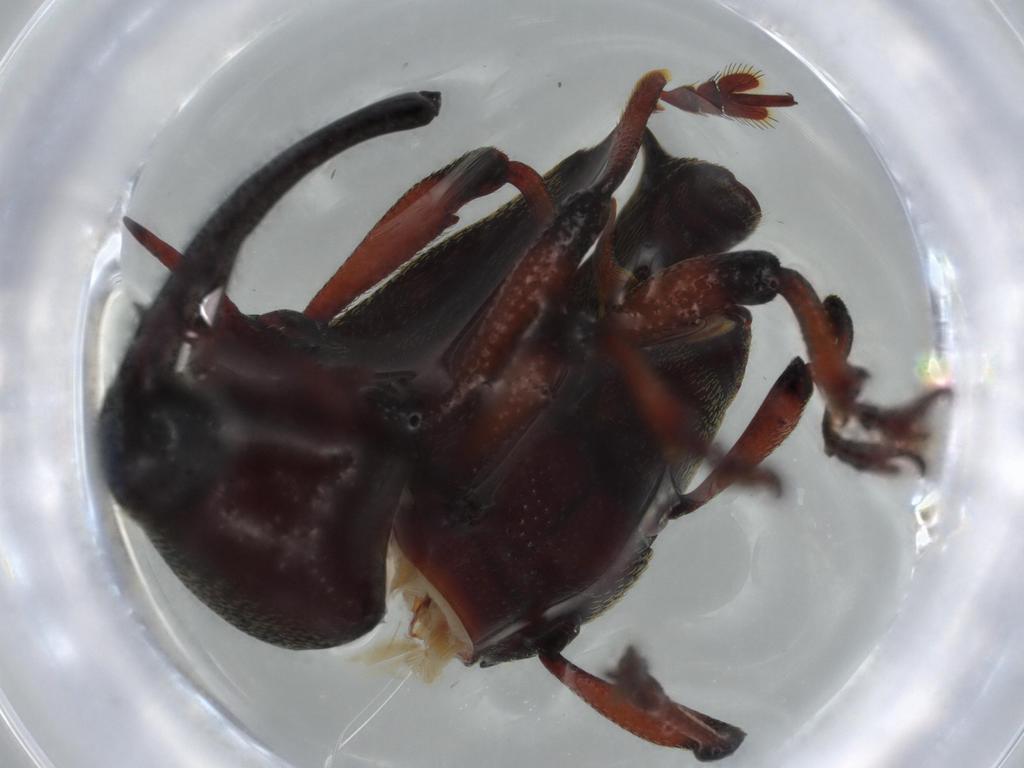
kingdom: Animalia
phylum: Arthropoda
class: Insecta
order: Coleoptera
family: Curculionidae
